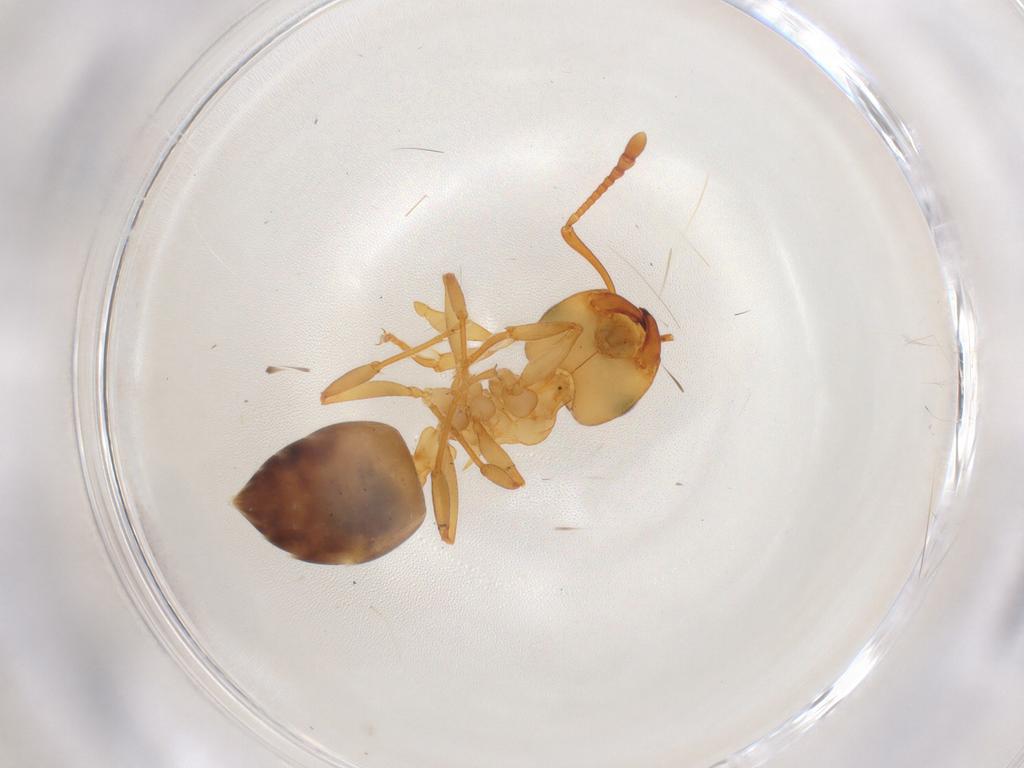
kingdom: Animalia
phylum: Arthropoda
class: Insecta
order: Hymenoptera
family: Formicidae
